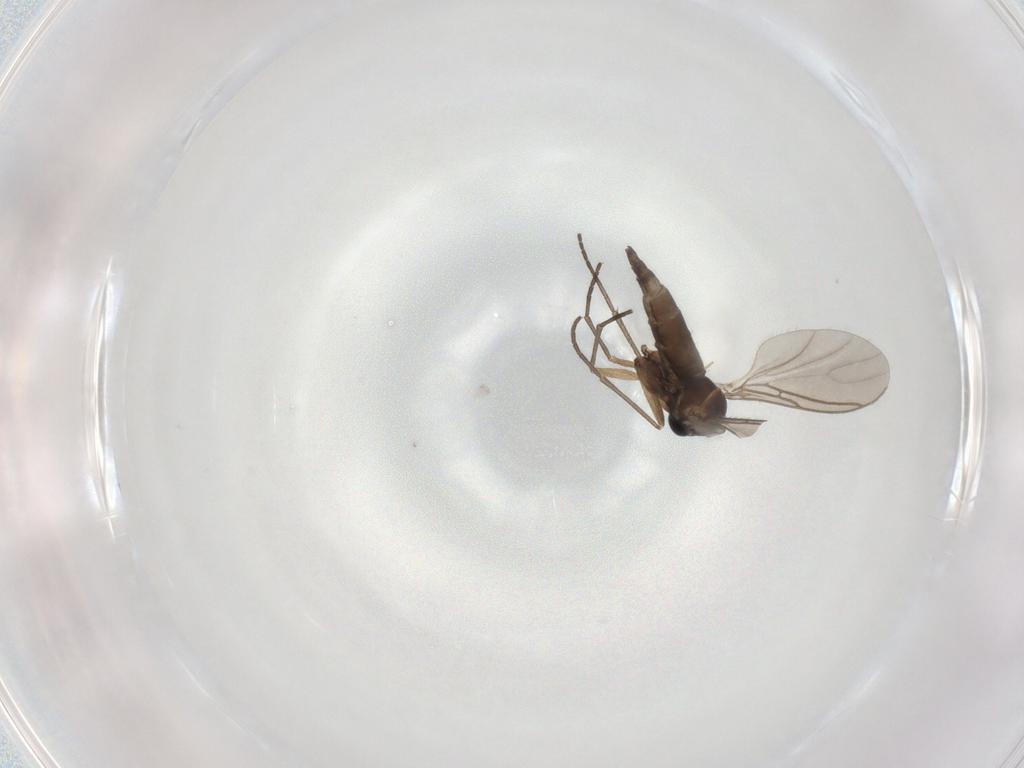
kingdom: Animalia
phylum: Arthropoda
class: Insecta
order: Diptera
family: Sciaridae
